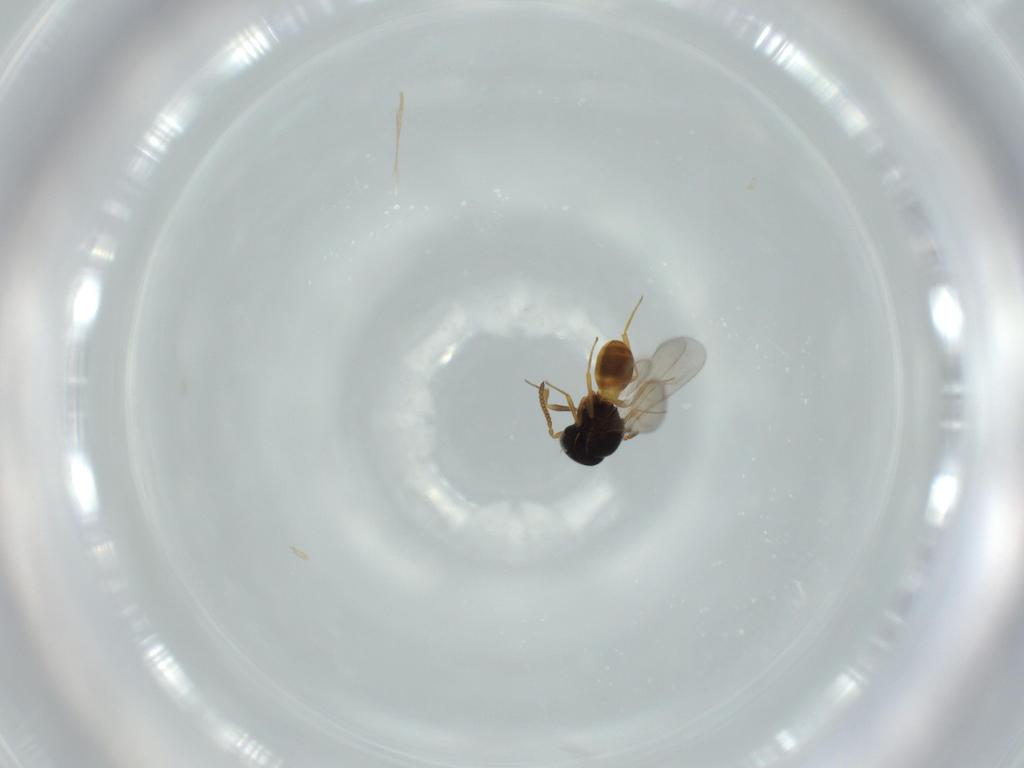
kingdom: Animalia
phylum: Arthropoda
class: Insecta
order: Hymenoptera
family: Scelionidae
